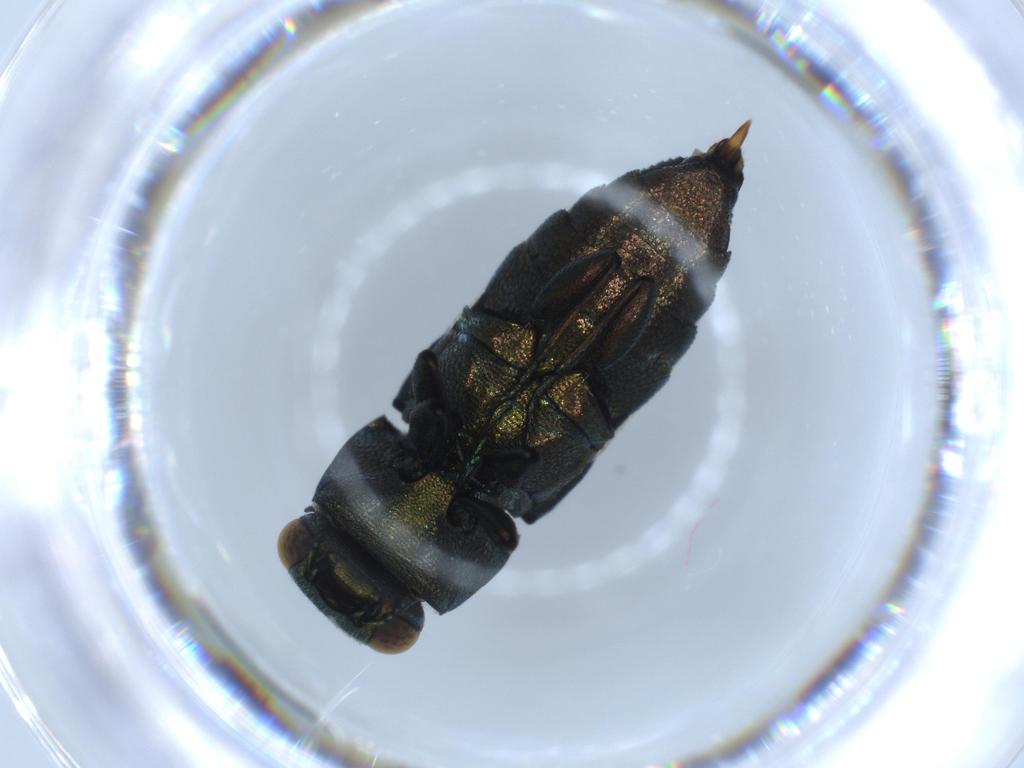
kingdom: Animalia
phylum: Arthropoda
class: Insecta
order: Coleoptera
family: Buprestidae
